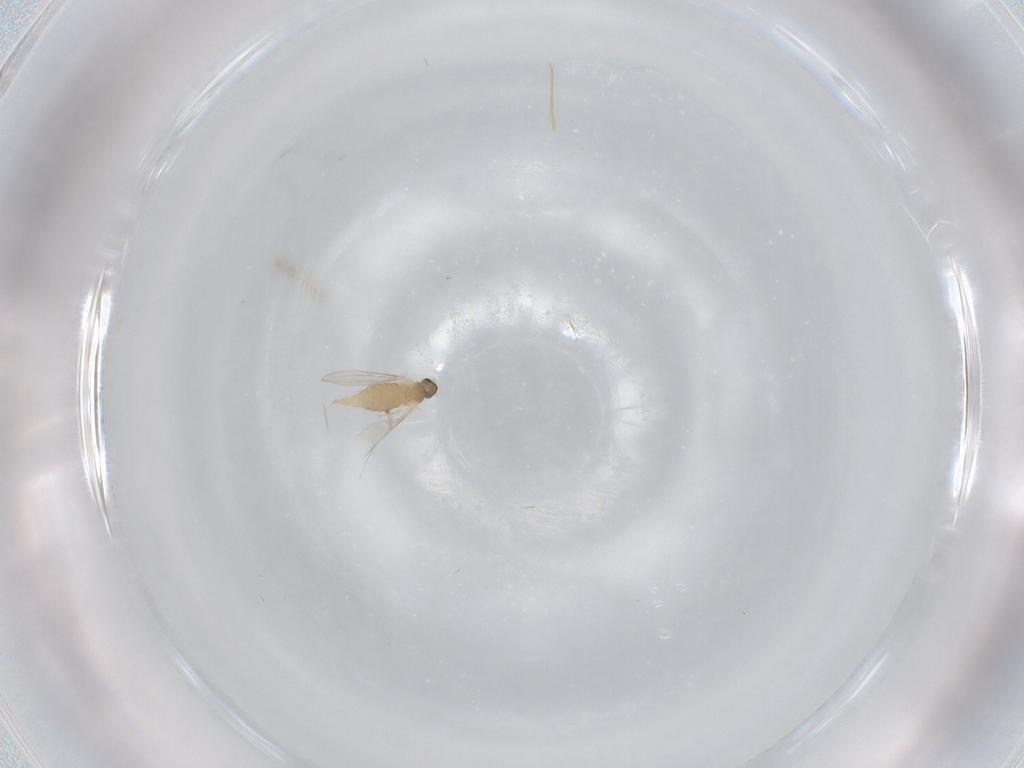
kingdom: Animalia
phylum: Arthropoda
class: Insecta
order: Diptera
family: Cecidomyiidae
